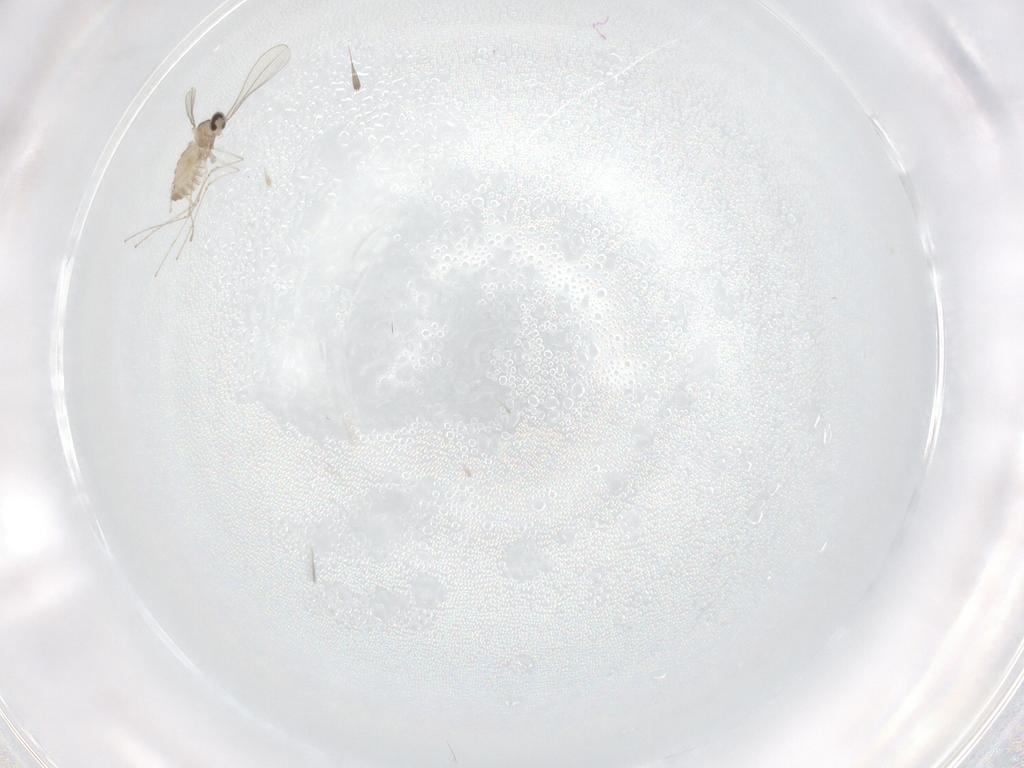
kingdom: Animalia
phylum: Arthropoda
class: Insecta
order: Diptera
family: Cecidomyiidae
